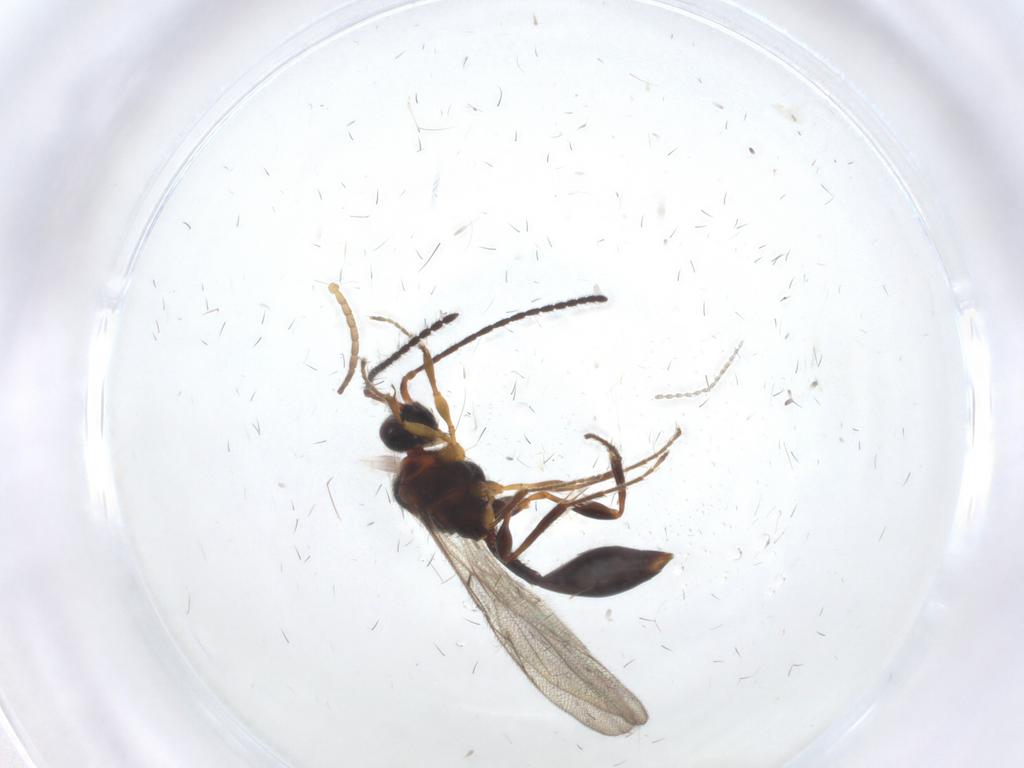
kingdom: Animalia
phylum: Arthropoda
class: Insecta
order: Hymenoptera
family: Diapriidae
